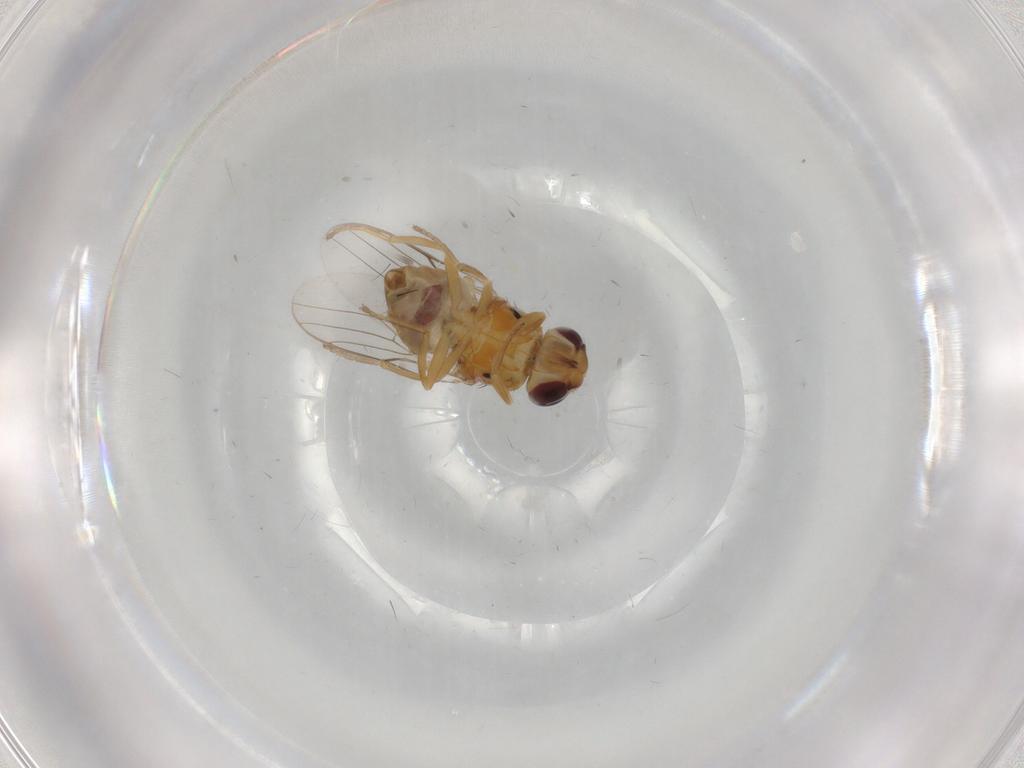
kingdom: Animalia
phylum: Arthropoda
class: Insecta
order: Diptera
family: Chloropidae
